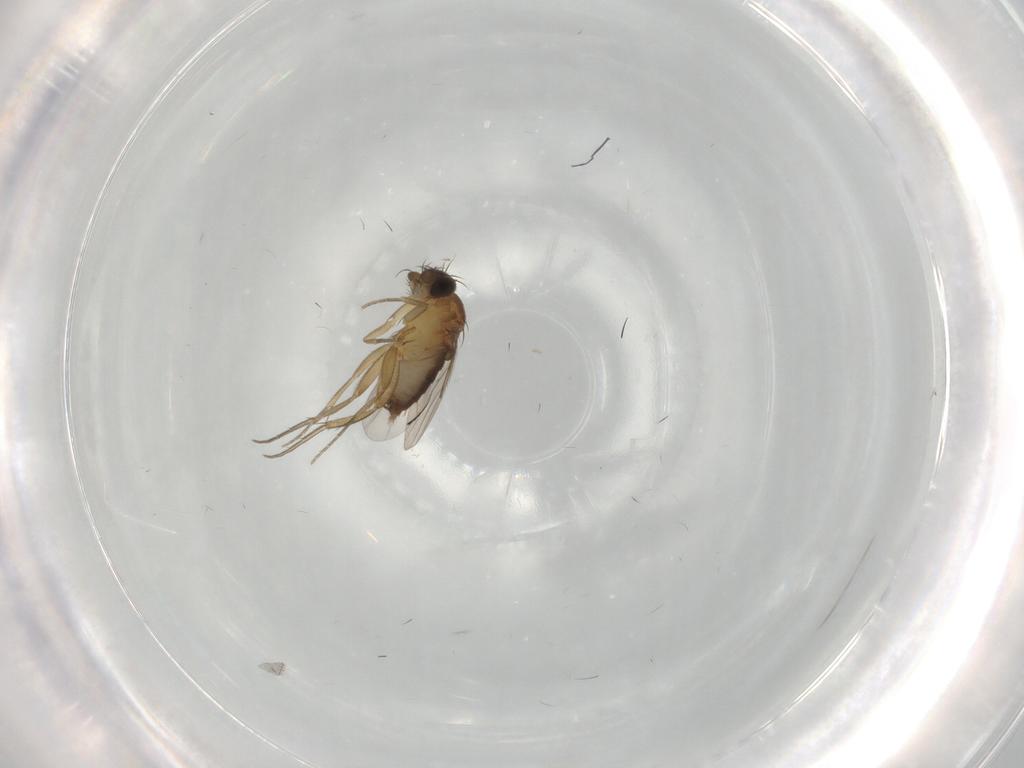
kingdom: Animalia
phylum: Arthropoda
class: Insecta
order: Diptera
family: Phoridae
